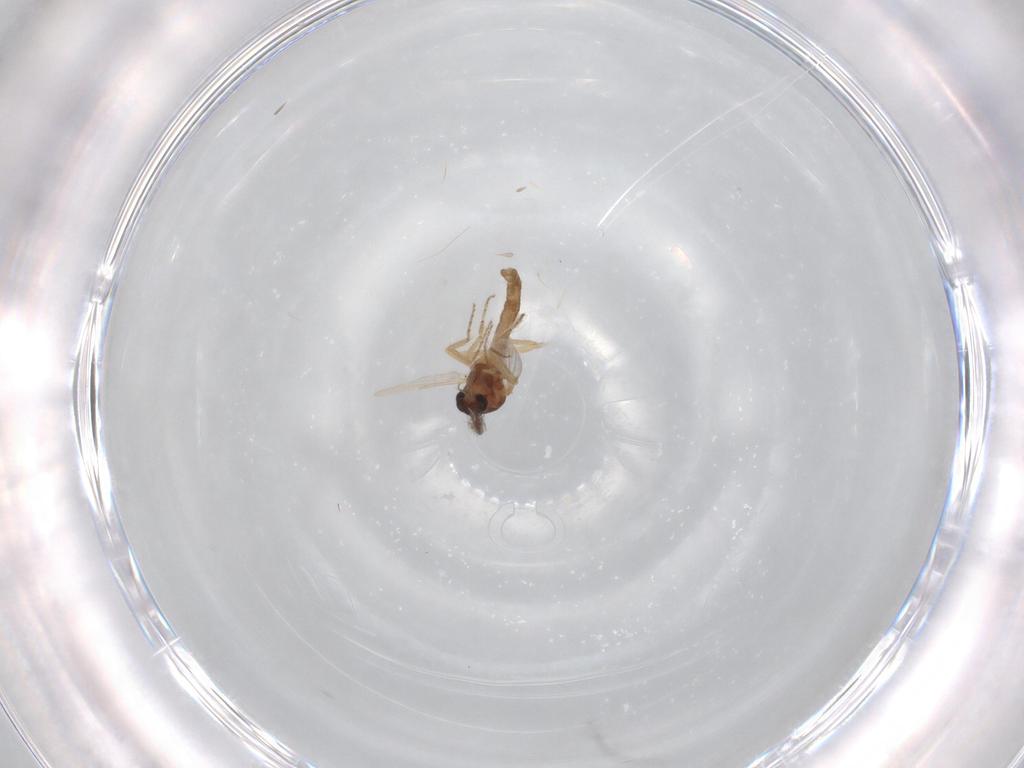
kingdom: Animalia
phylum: Arthropoda
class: Insecta
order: Diptera
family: Ceratopogonidae
